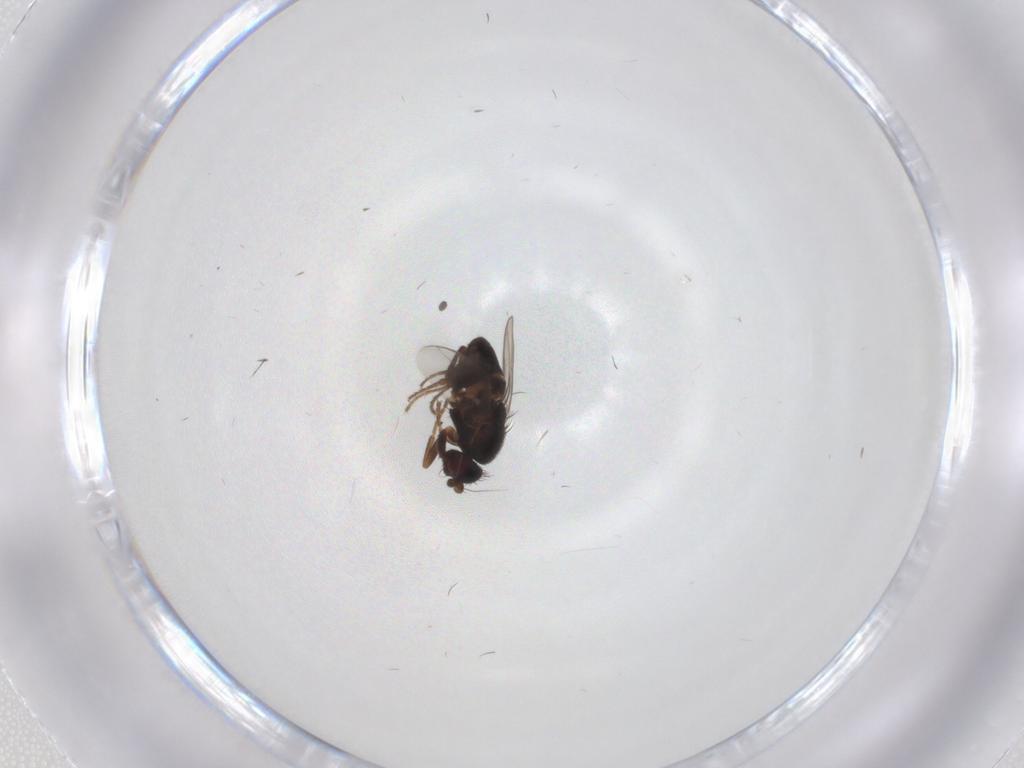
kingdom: Animalia
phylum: Arthropoda
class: Insecta
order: Diptera
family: Sphaeroceridae
